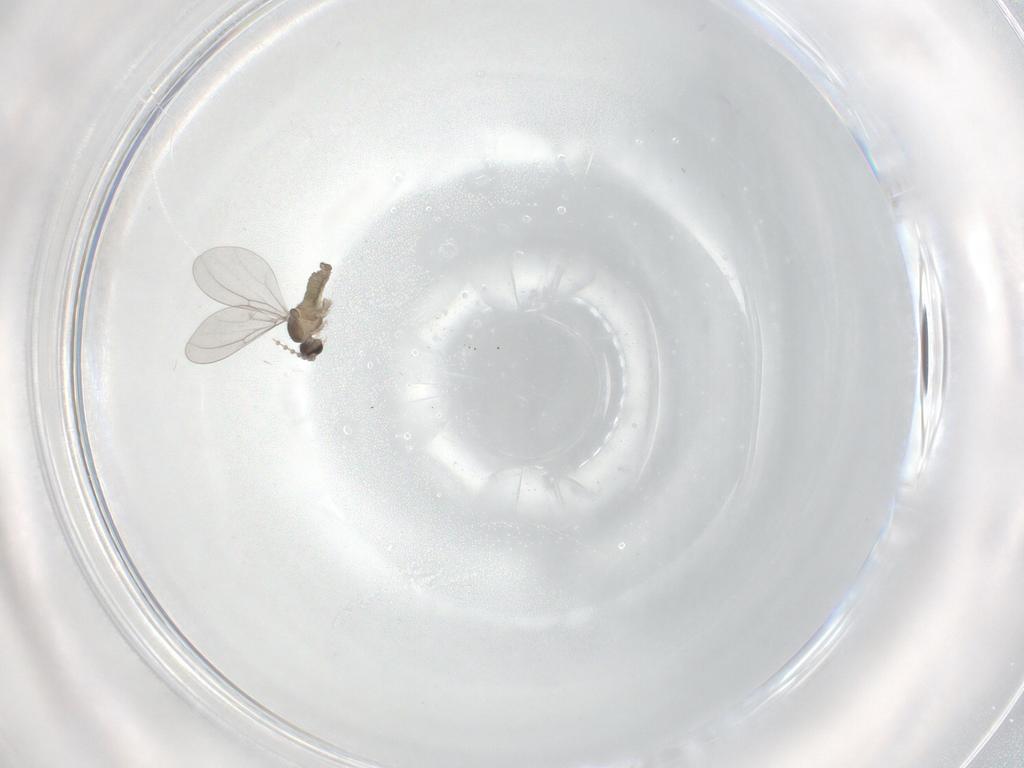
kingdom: Animalia
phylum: Arthropoda
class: Insecta
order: Diptera
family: Cecidomyiidae
